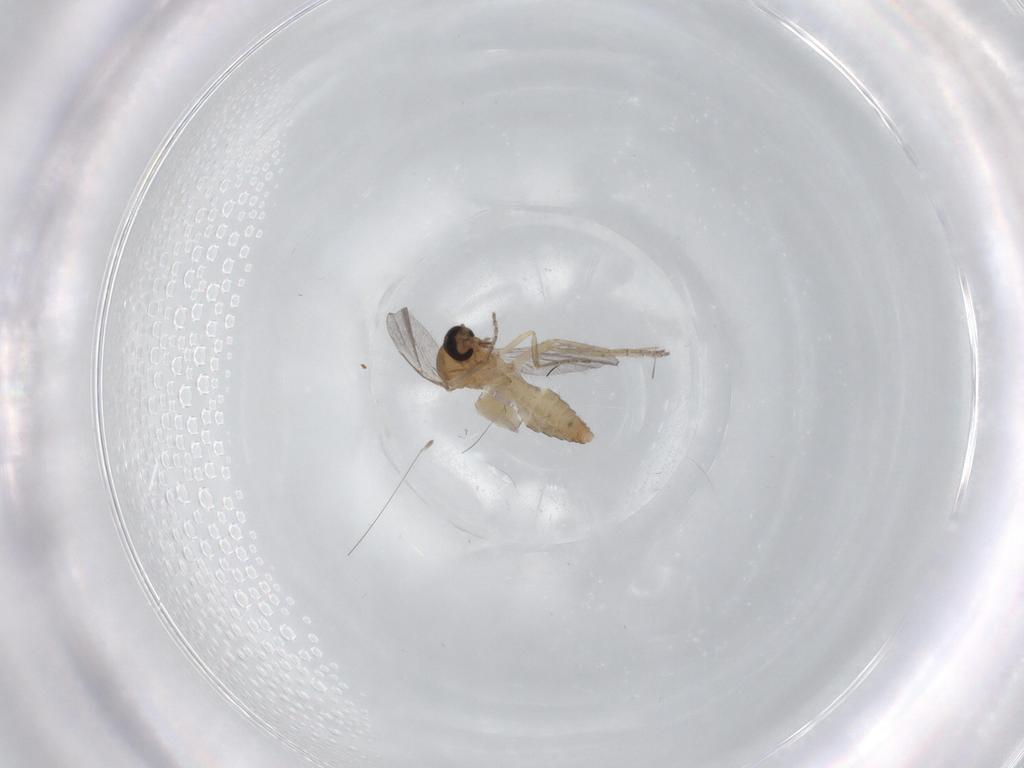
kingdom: Animalia
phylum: Arthropoda
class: Insecta
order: Diptera
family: Ceratopogonidae
